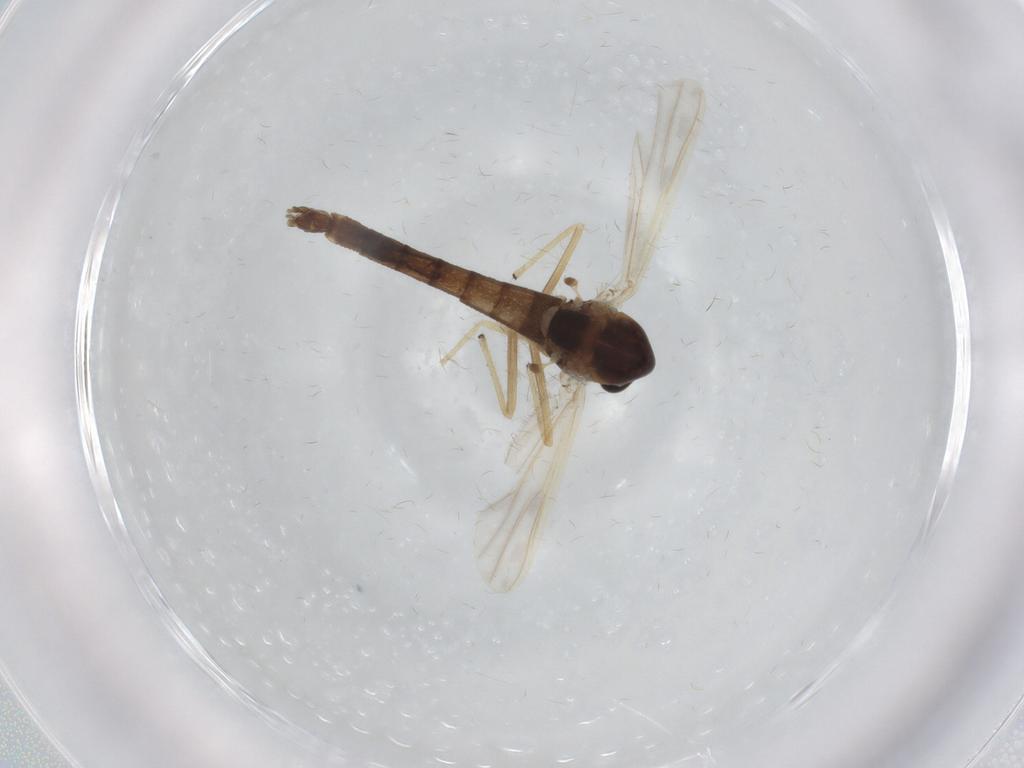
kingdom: Animalia
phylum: Arthropoda
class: Insecta
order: Diptera
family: Chironomidae
